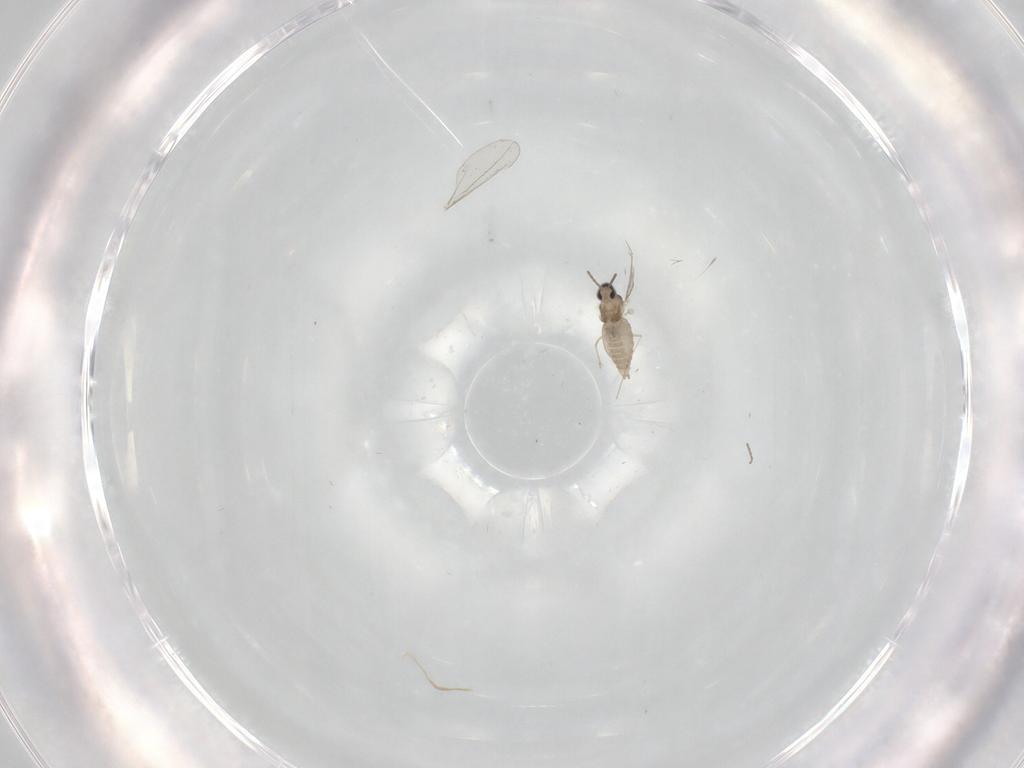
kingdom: Animalia
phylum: Arthropoda
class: Insecta
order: Diptera
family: Cecidomyiidae
